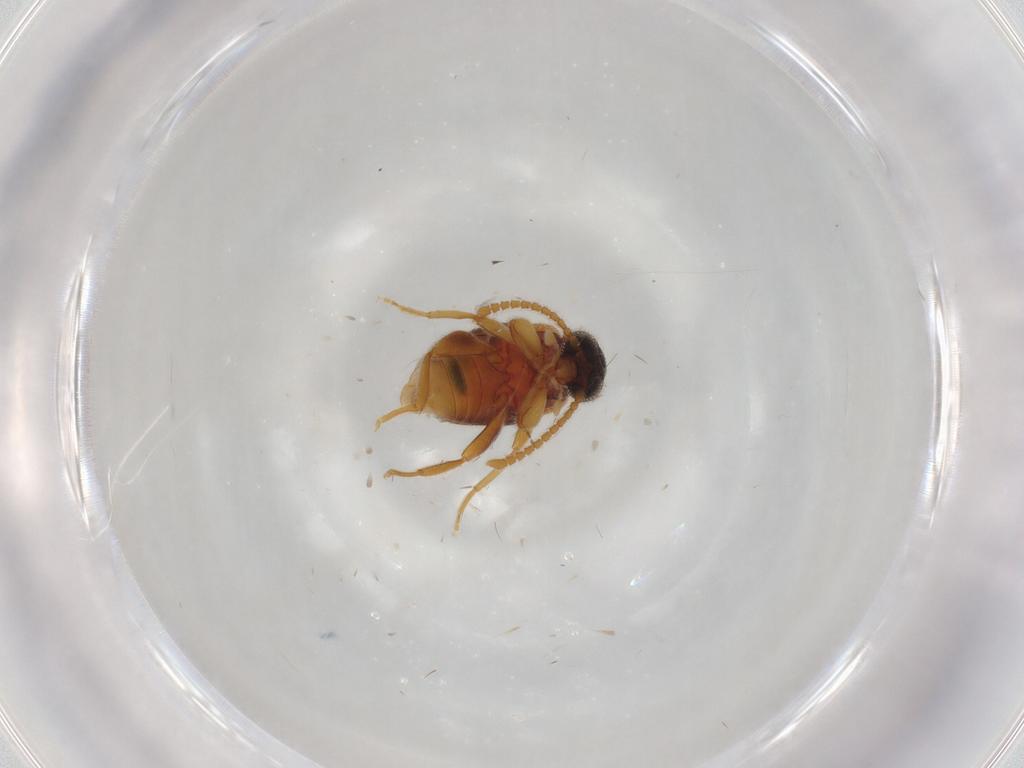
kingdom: Animalia
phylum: Arthropoda
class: Insecta
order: Coleoptera
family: Aderidae
